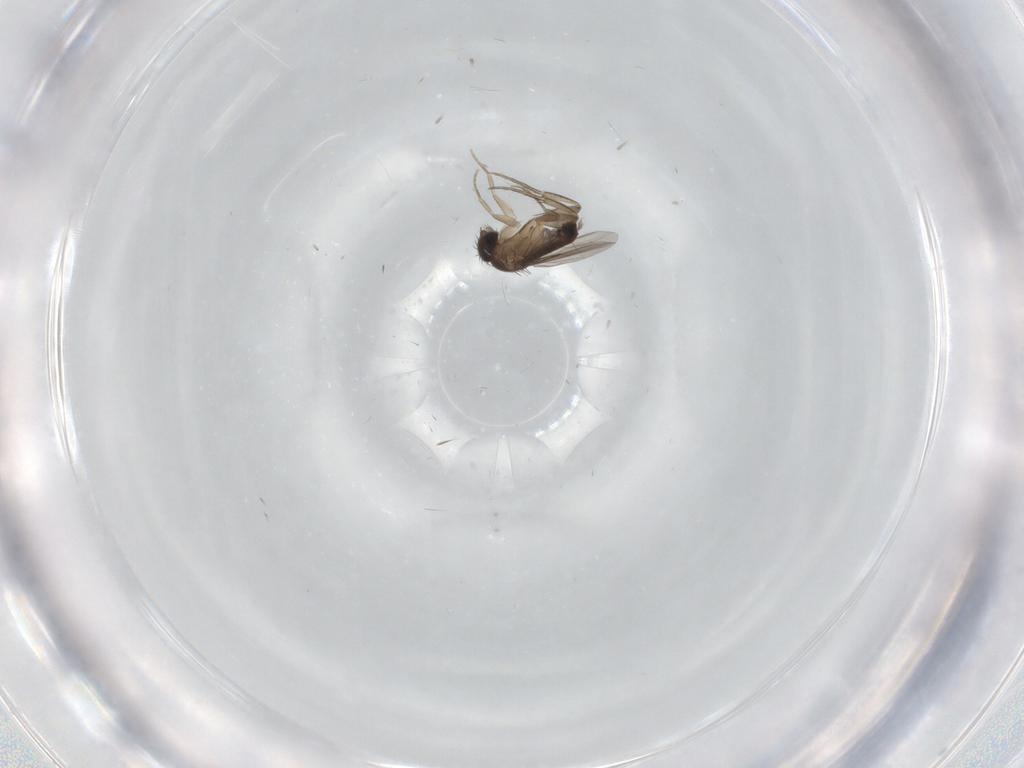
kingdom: Animalia
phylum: Arthropoda
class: Insecta
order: Diptera
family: Phoridae
